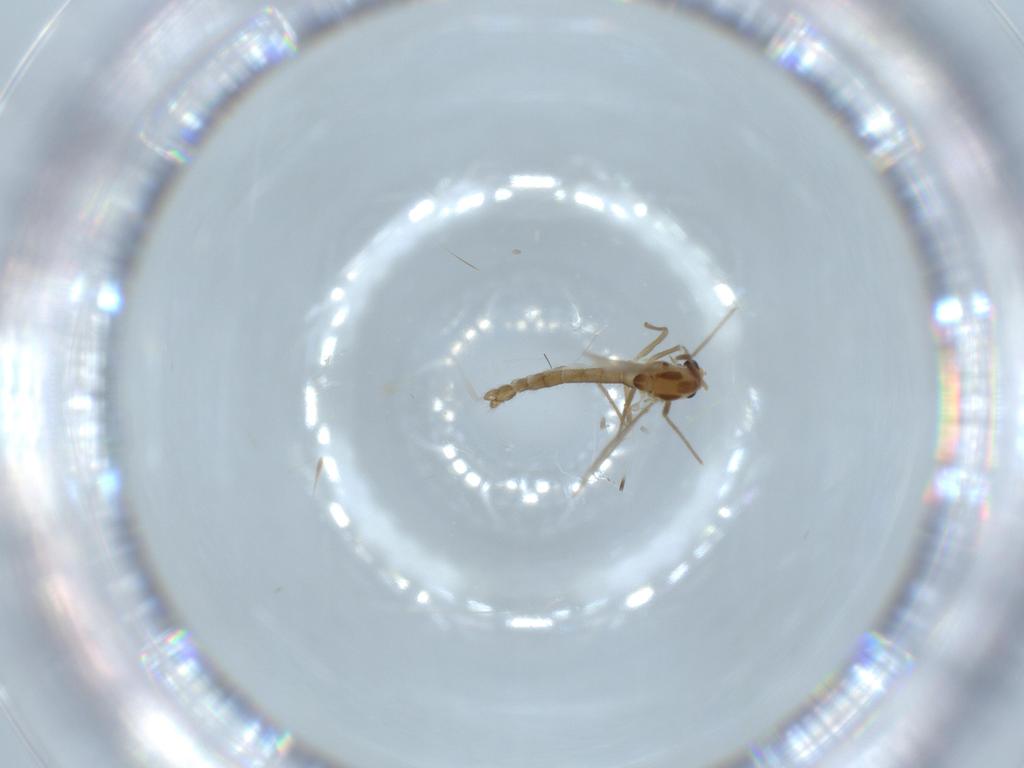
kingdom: Animalia
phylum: Arthropoda
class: Insecta
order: Diptera
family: Chironomidae
